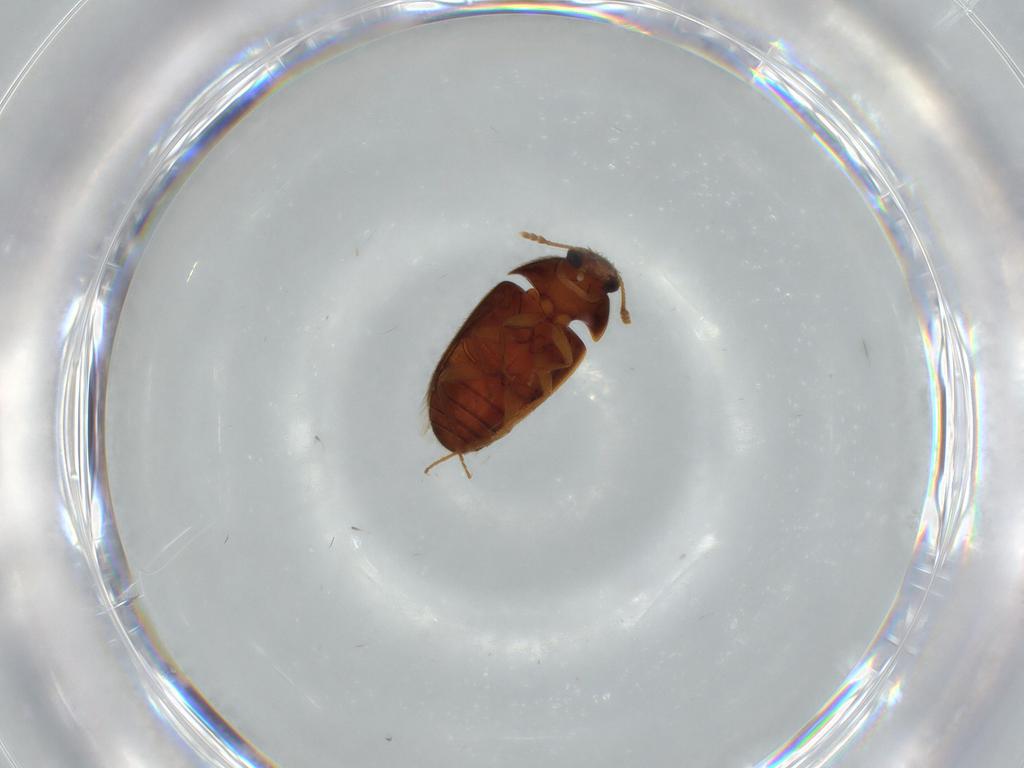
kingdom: Animalia
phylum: Arthropoda
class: Insecta
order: Coleoptera
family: Mycetophagidae
